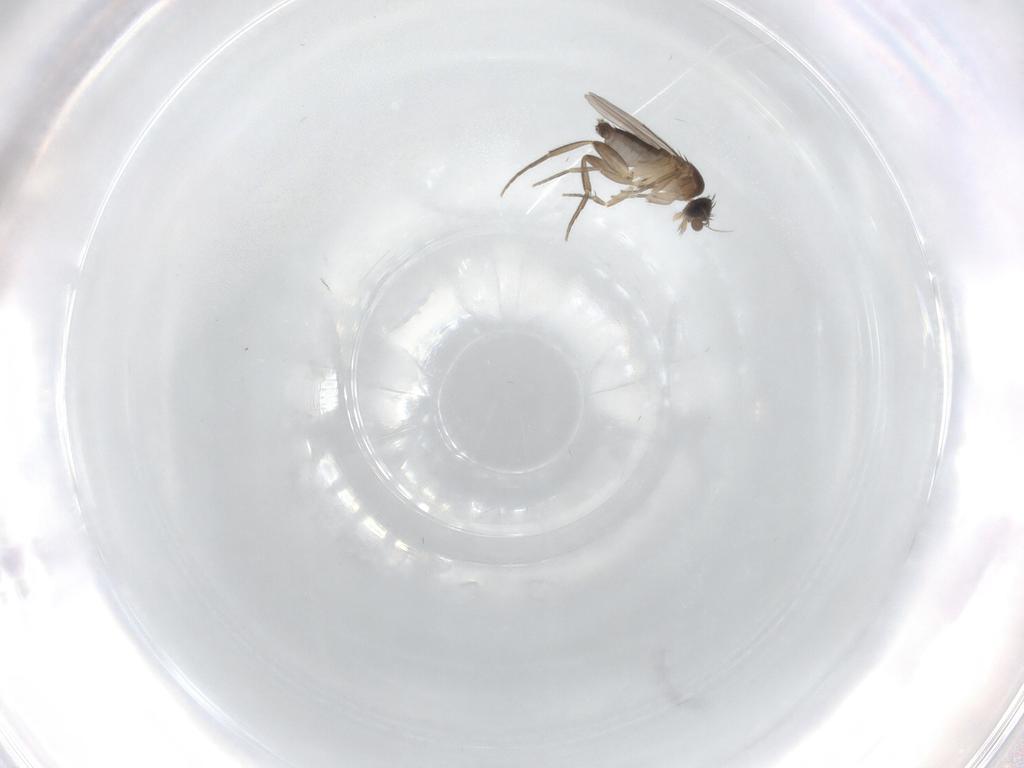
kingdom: Animalia
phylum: Arthropoda
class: Insecta
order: Diptera
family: Phoridae
